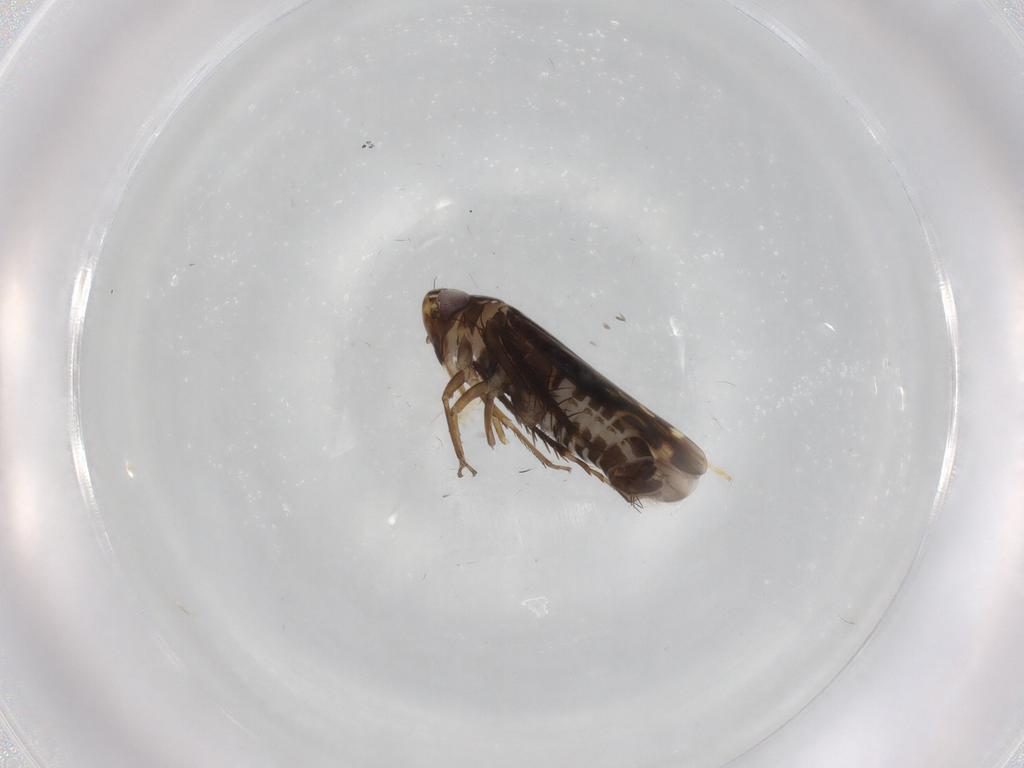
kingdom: Animalia
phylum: Arthropoda
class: Insecta
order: Hemiptera
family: Cicadellidae
